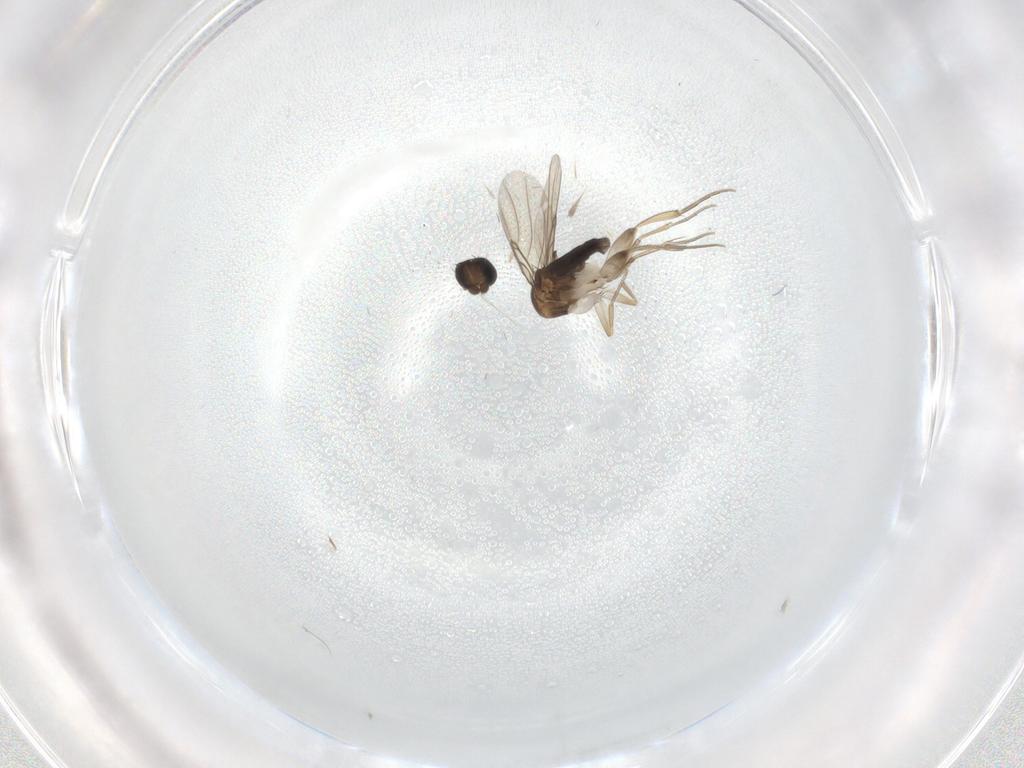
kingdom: Animalia
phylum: Arthropoda
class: Insecta
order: Diptera
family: Phoridae
